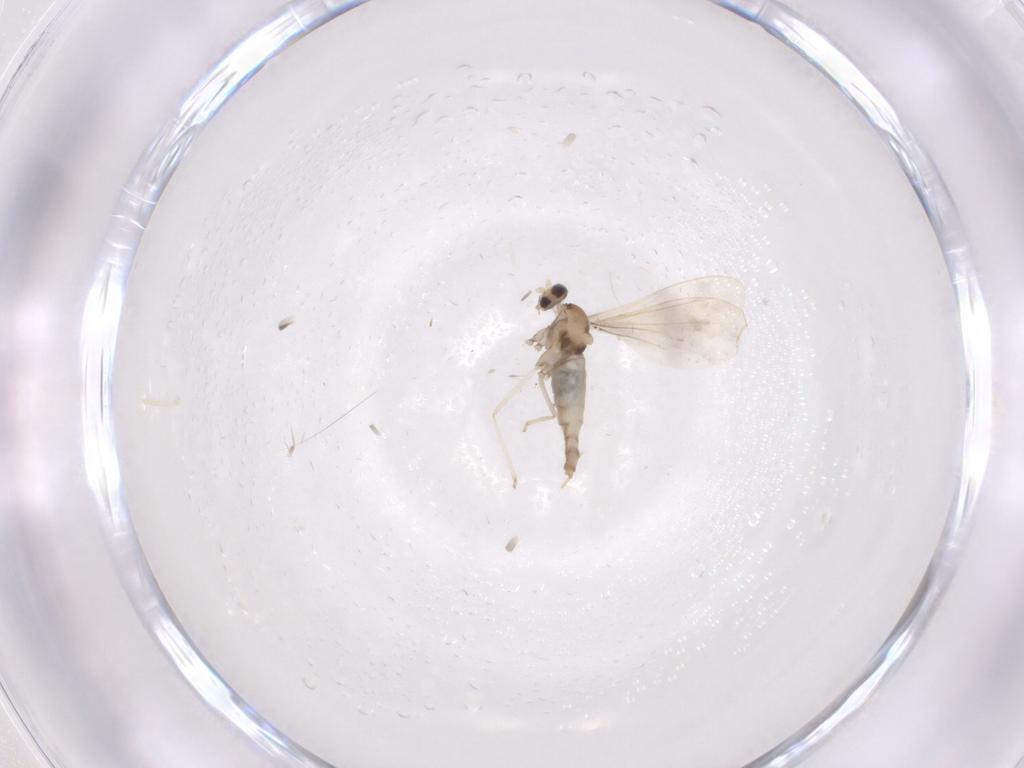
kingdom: Animalia
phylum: Arthropoda
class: Insecta
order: Diptera
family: Cecidomyiidae
